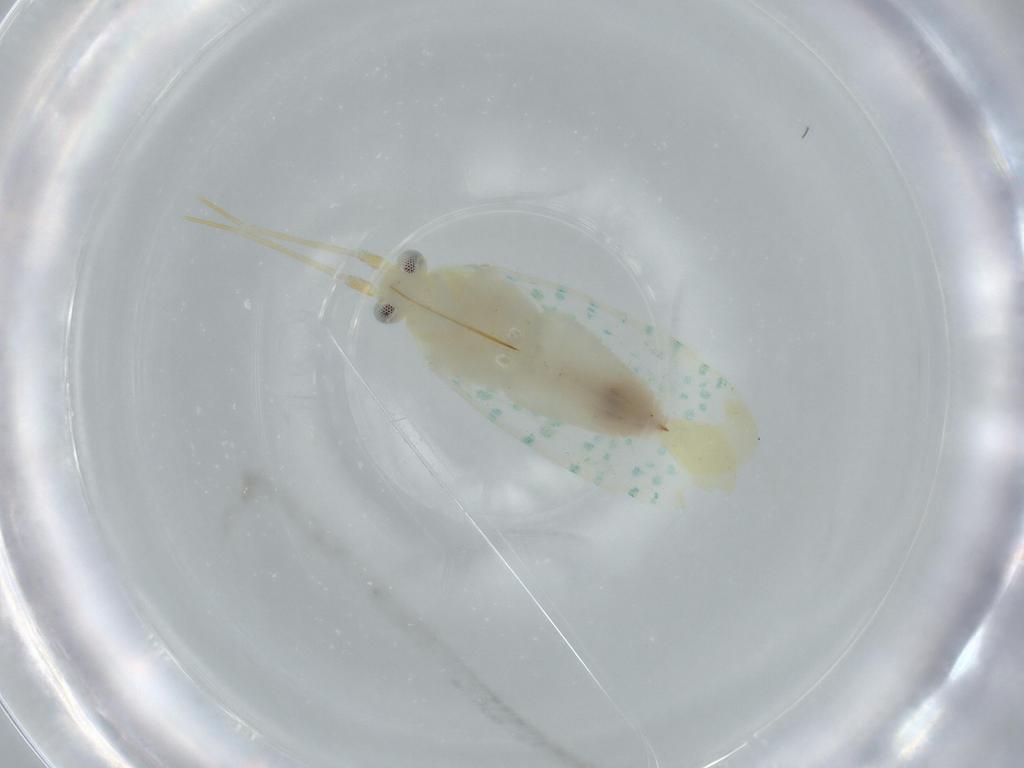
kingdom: Animalia
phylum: Arthropoda
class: Insecta
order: Hemiptera
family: Miridae
